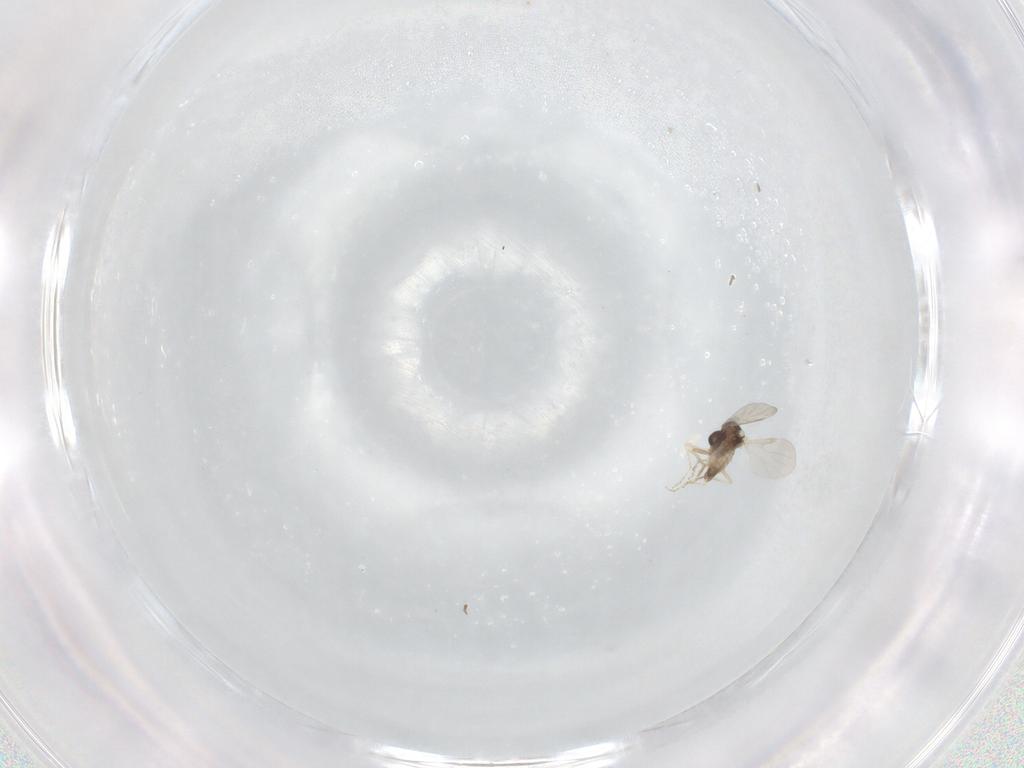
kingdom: Animalia
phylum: Arthropoda
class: Insecta
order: Diptera
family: Ceratopogonidae
